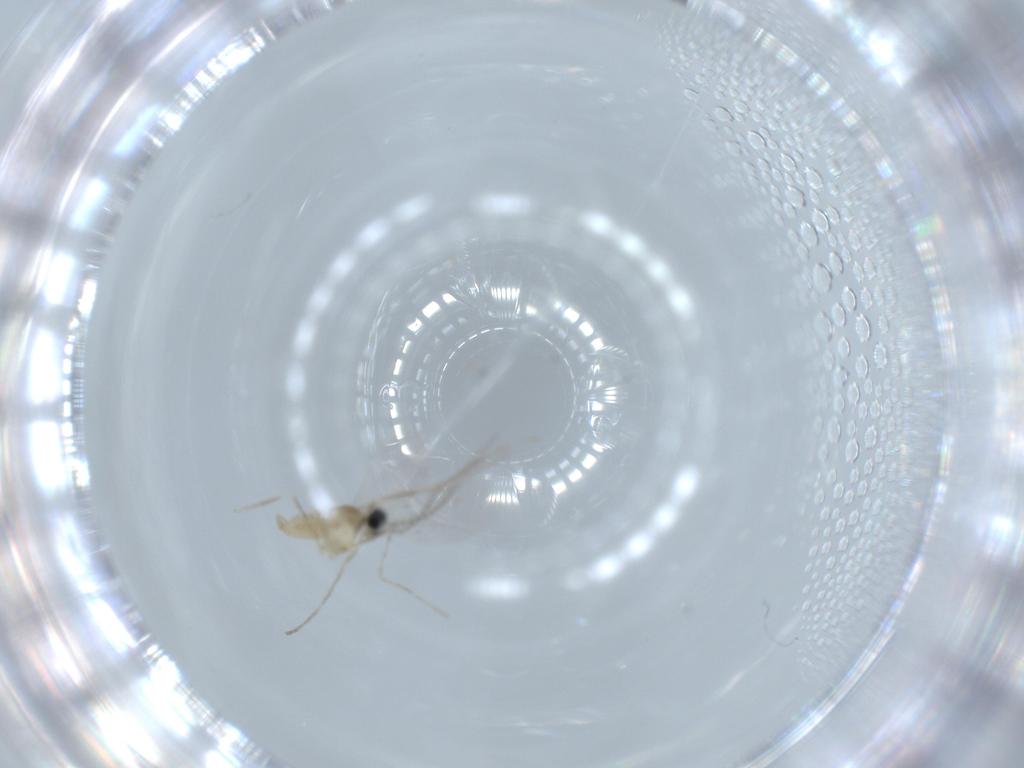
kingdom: Animalia
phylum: Arthropoda
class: Insecta
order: Diptera
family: Cecidomyiidae
